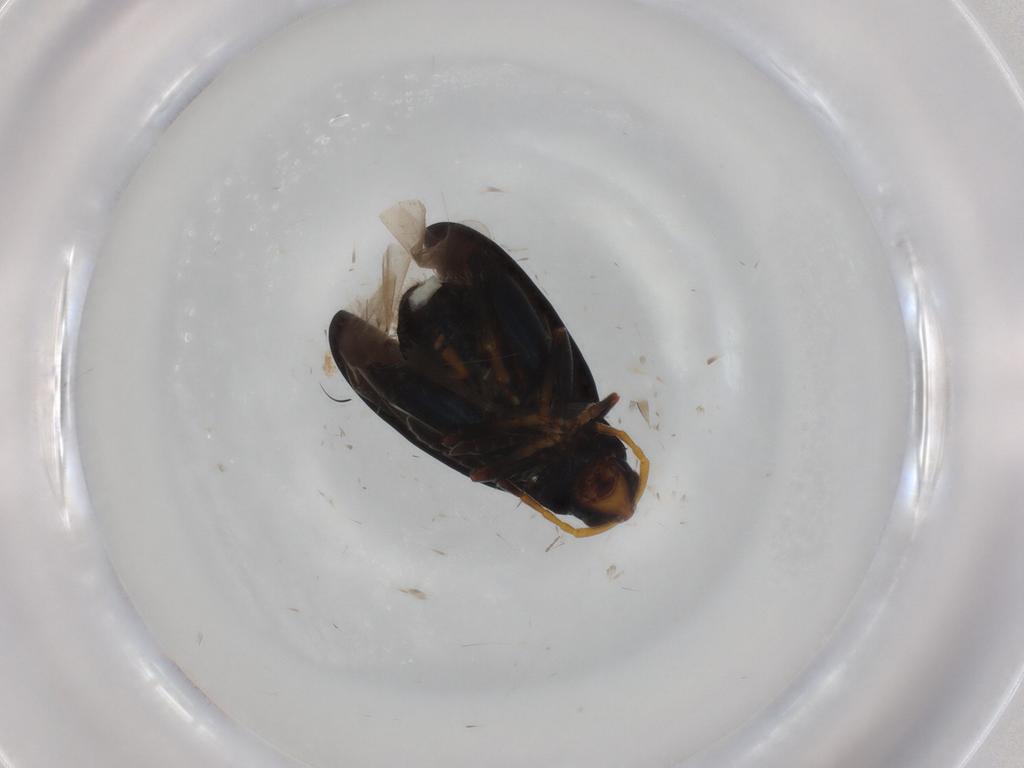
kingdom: Animalia
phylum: Arthropoda
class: Insecta
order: Coleoptera
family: Chrysomelidae
